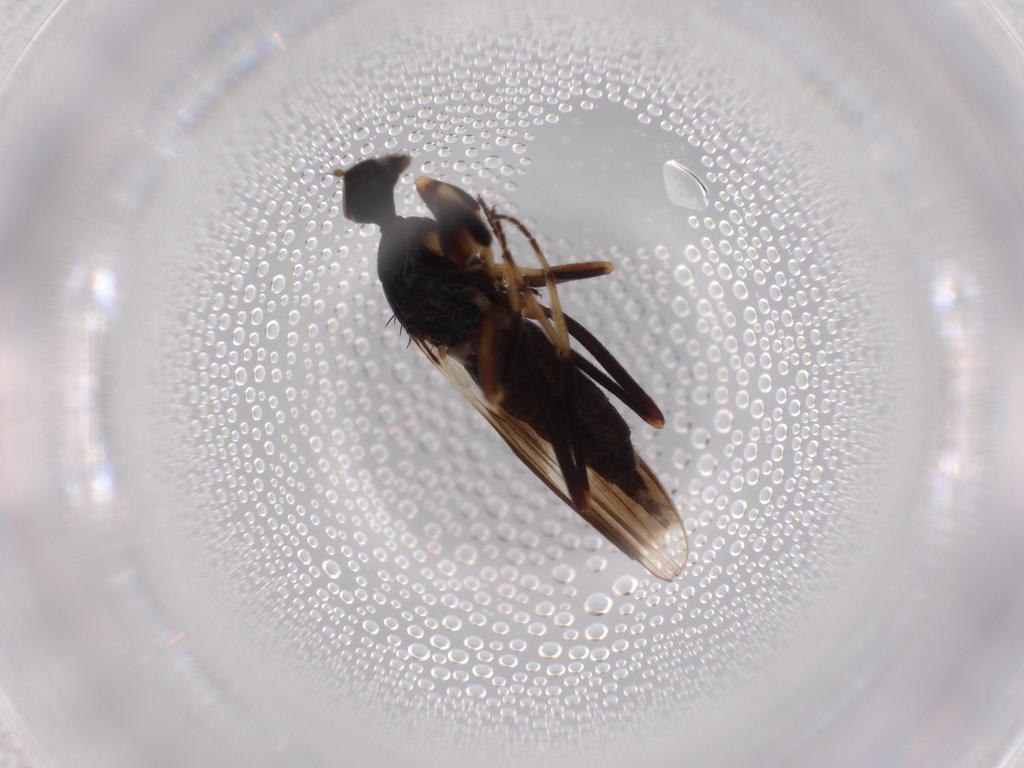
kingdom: Animalia
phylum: Arthropoda
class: Insecta
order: Diptera
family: Hybotidae
